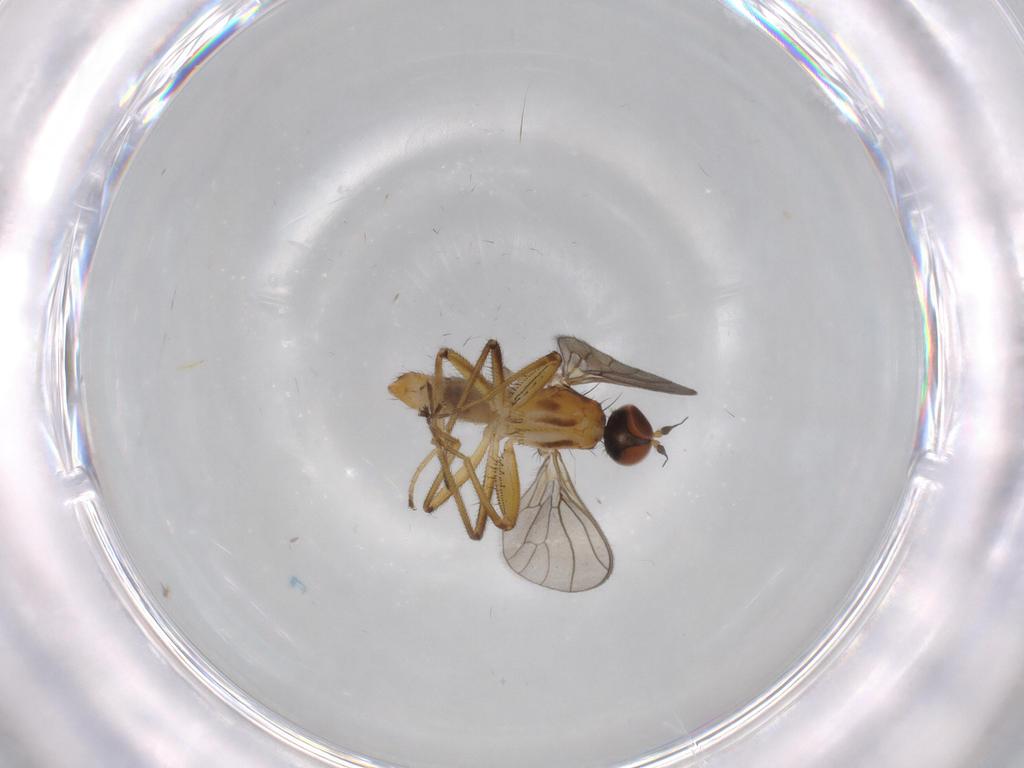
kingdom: Animalia
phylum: Arthropoda
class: Insecta
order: Diptera
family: Empididae
